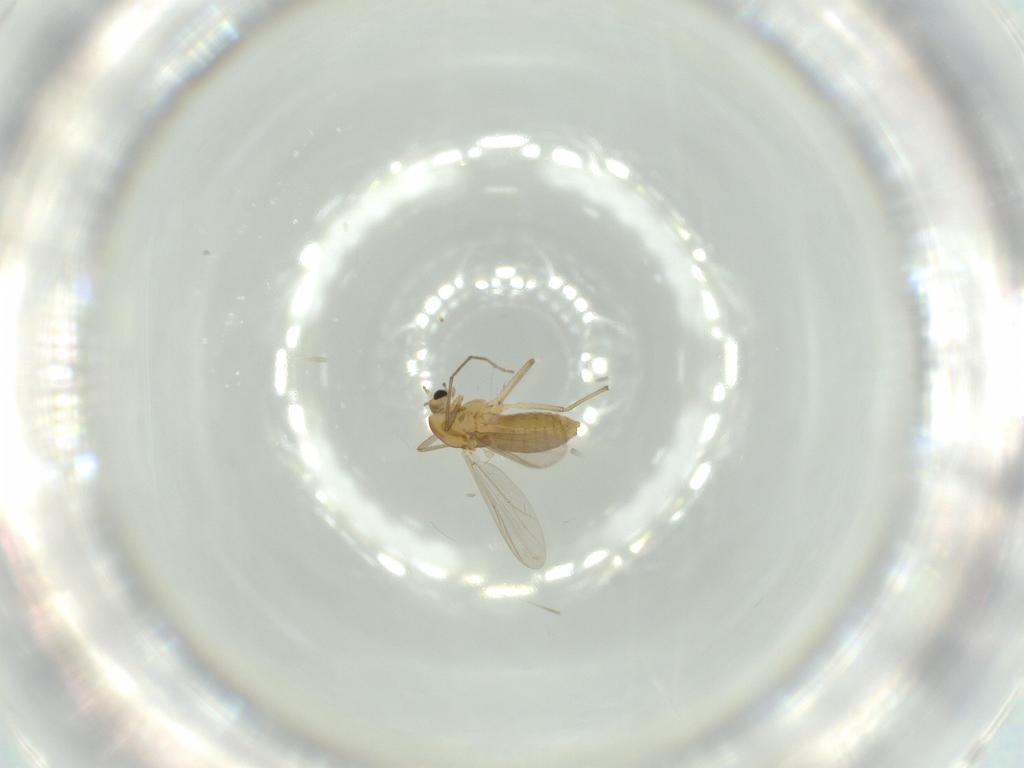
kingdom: Animalia
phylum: Arthropoda
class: Insecta
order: Diptera
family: Chironomidae
